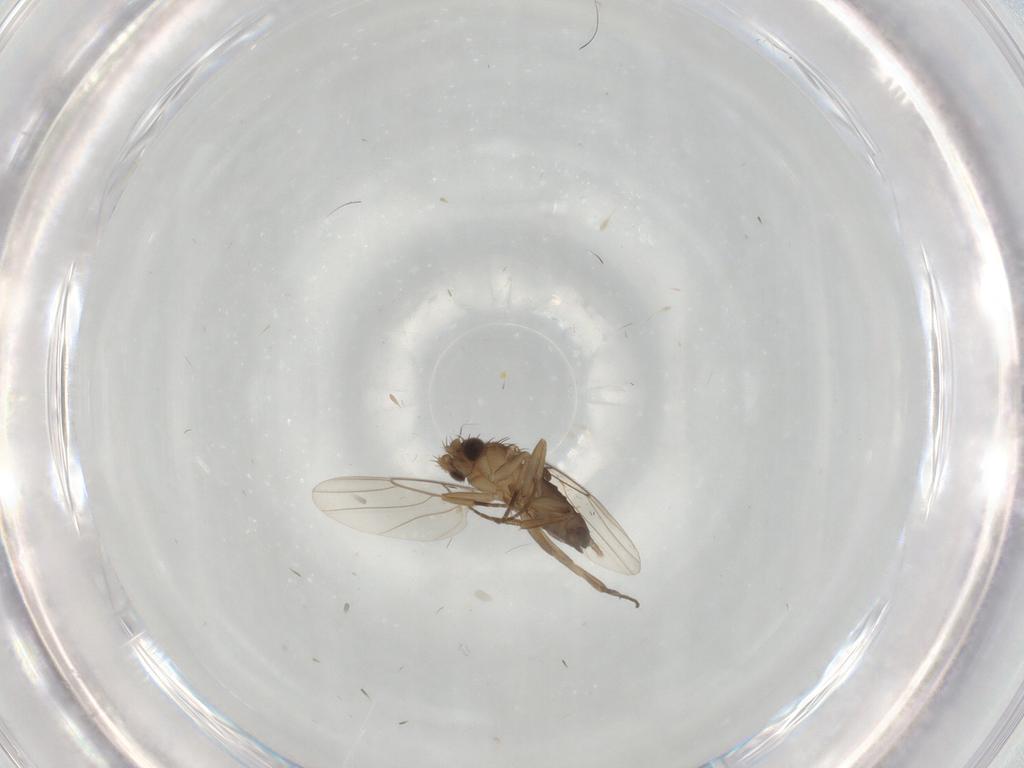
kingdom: Animalia
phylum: Arthropoda
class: Insecta
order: Diptera
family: Phoridae
